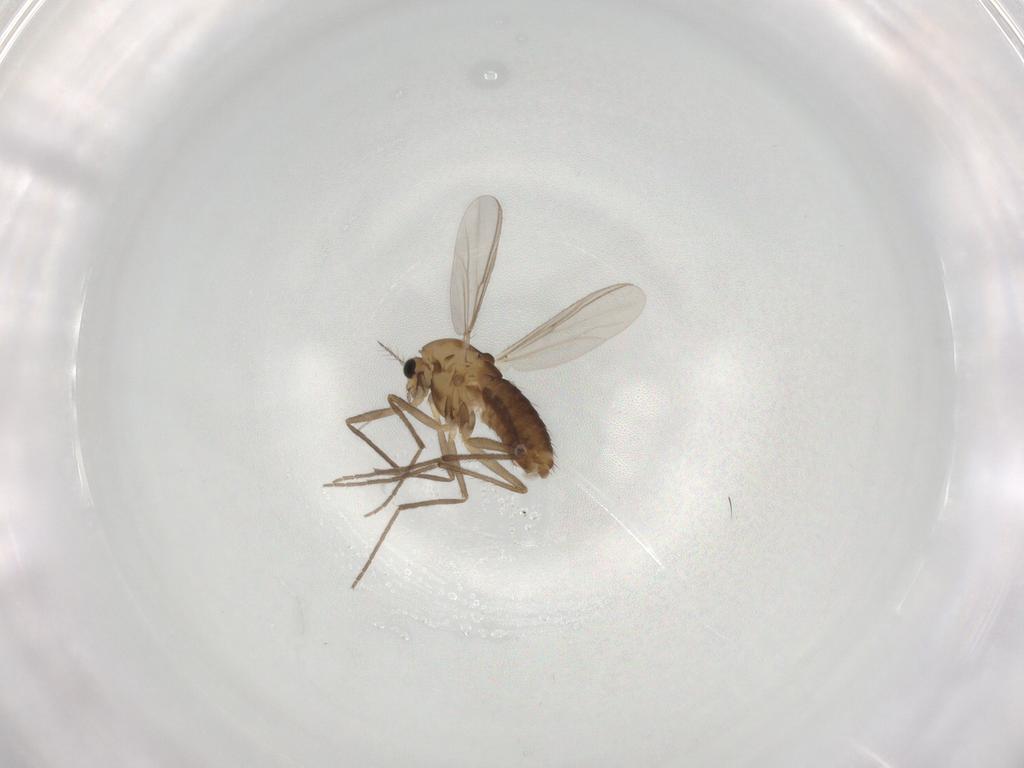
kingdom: Animalia
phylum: Arthropoda
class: Insecta
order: Diptera
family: Chironomidae
